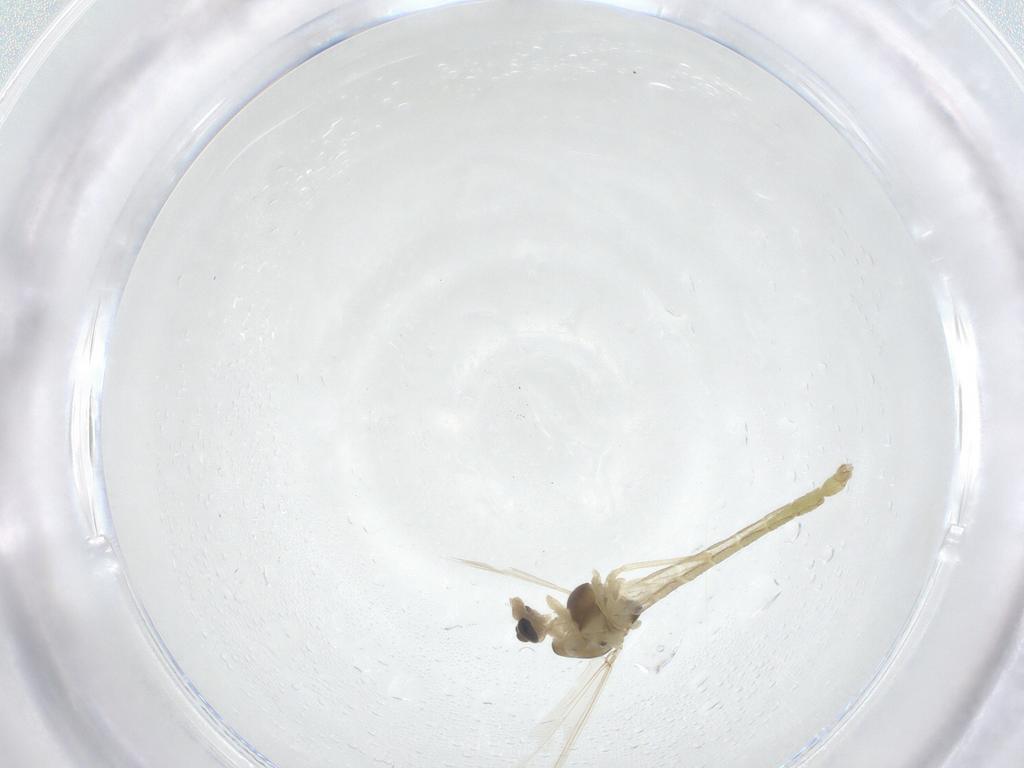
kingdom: Animalia
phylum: Arthropoda
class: Insecta
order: Diptera
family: Chironomidae
